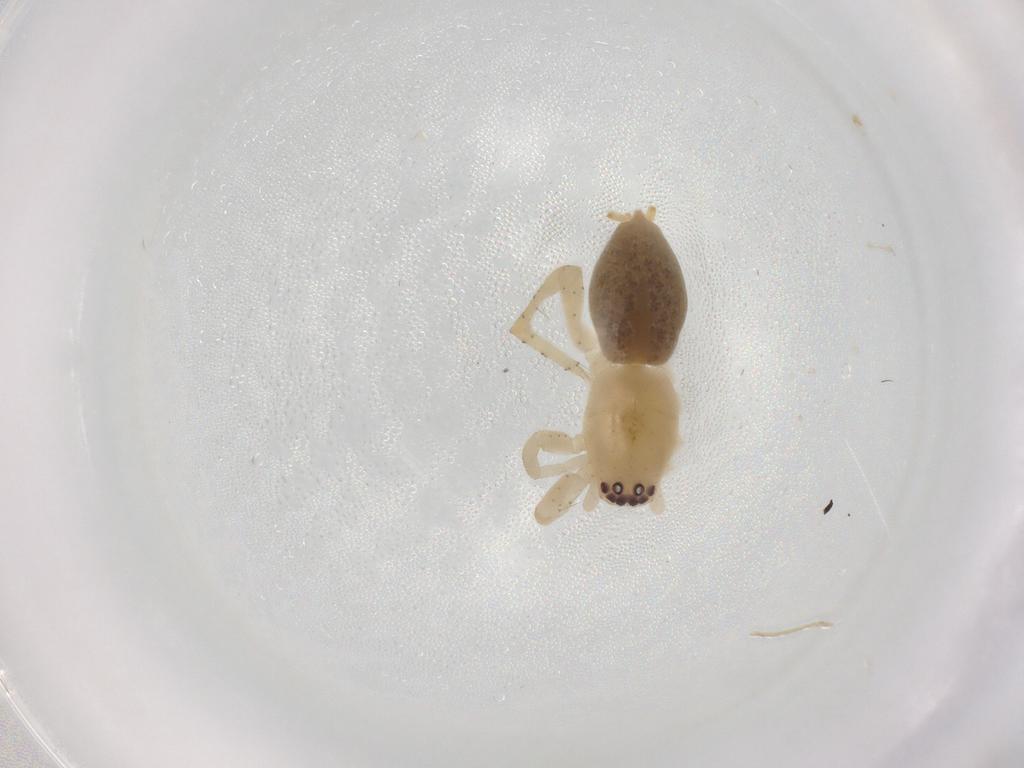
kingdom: Animalia
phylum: Arthropoda
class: Arachnida
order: Araneae
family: Clubionidae
